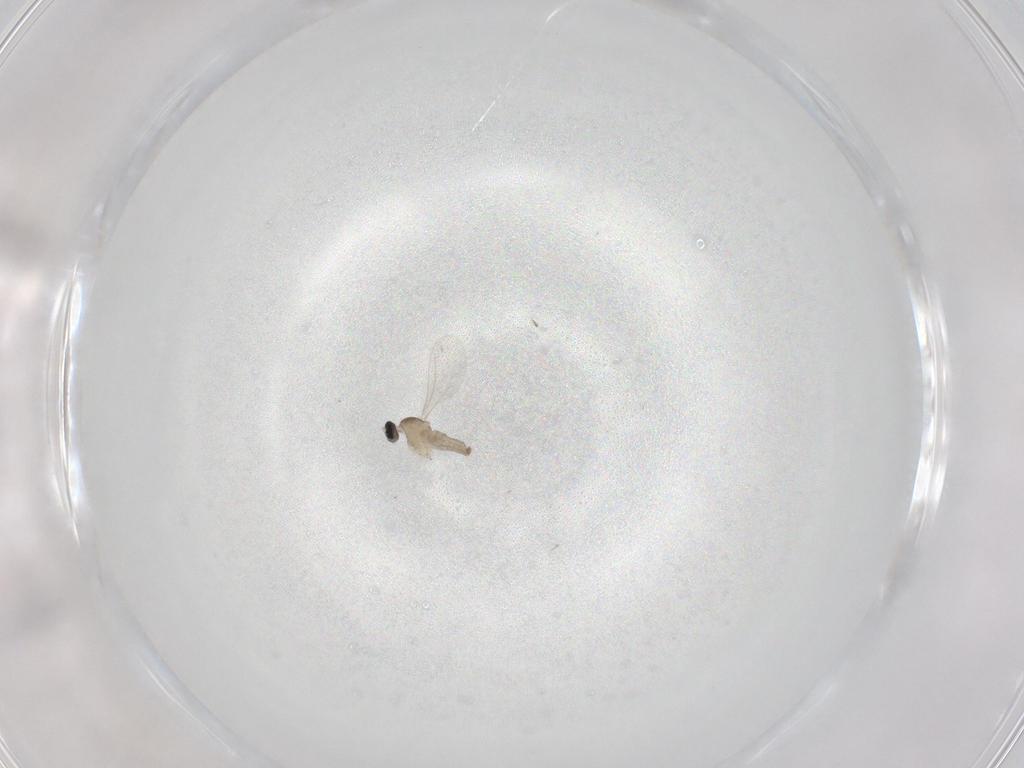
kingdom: Animalia
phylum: Arthropoda
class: Insecta
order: Diptera
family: Cecidomyiidae
